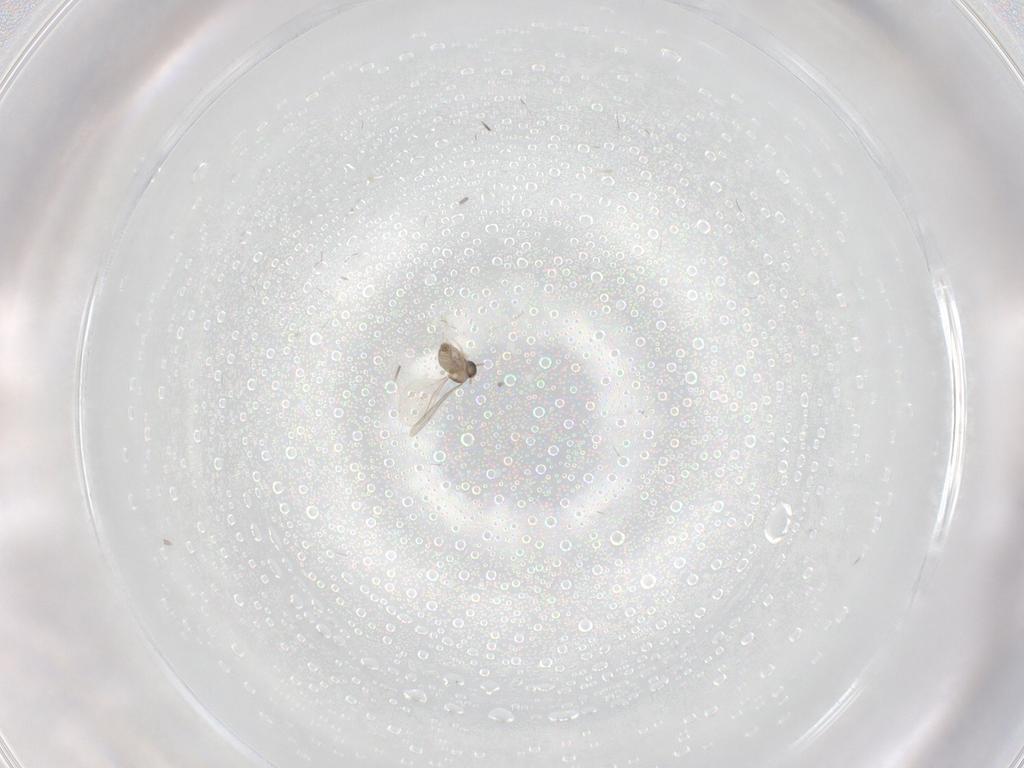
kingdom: Animalia
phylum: Arthropoda
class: Insecta
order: Diptera
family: Cecidomyiidae
